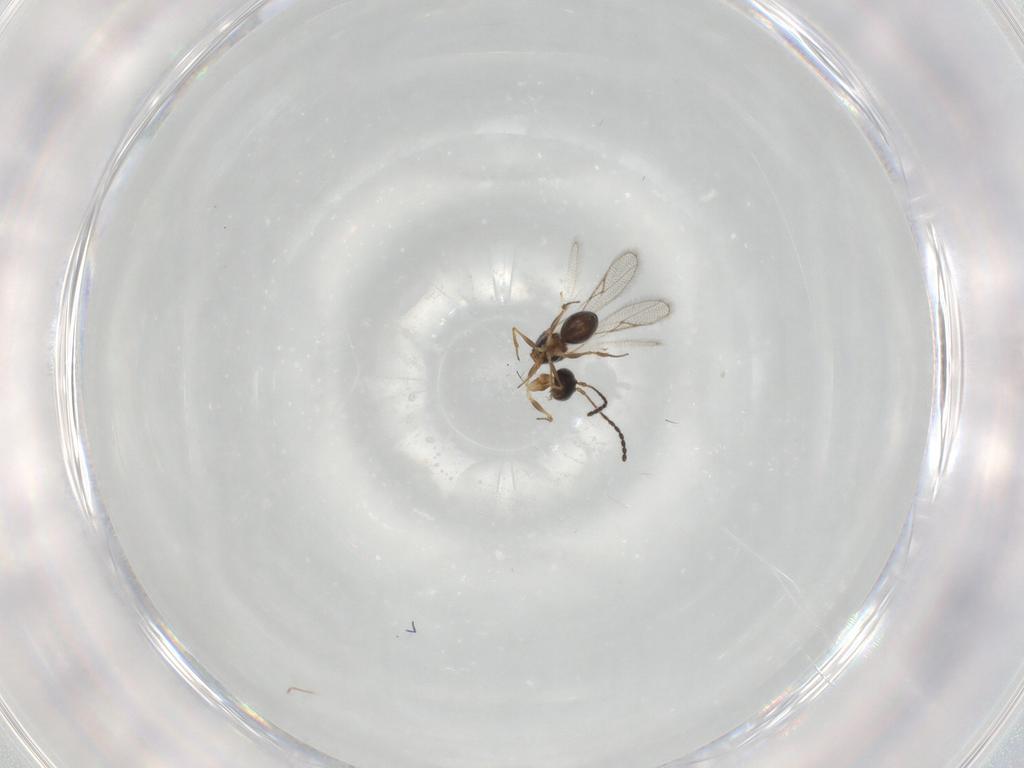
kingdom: Animalia
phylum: Arthropoda
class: Insecta
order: Hymenoptera
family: Figitidae
